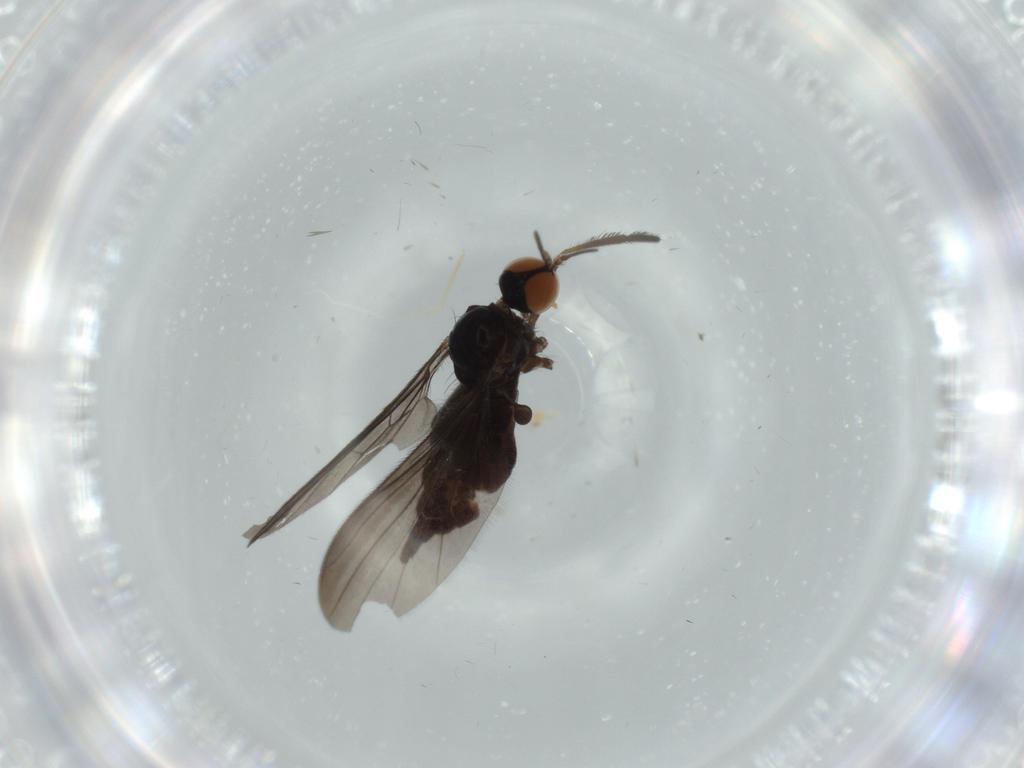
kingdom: Animalia
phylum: Arthropoda
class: Insecta
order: Diptera
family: Empididae
